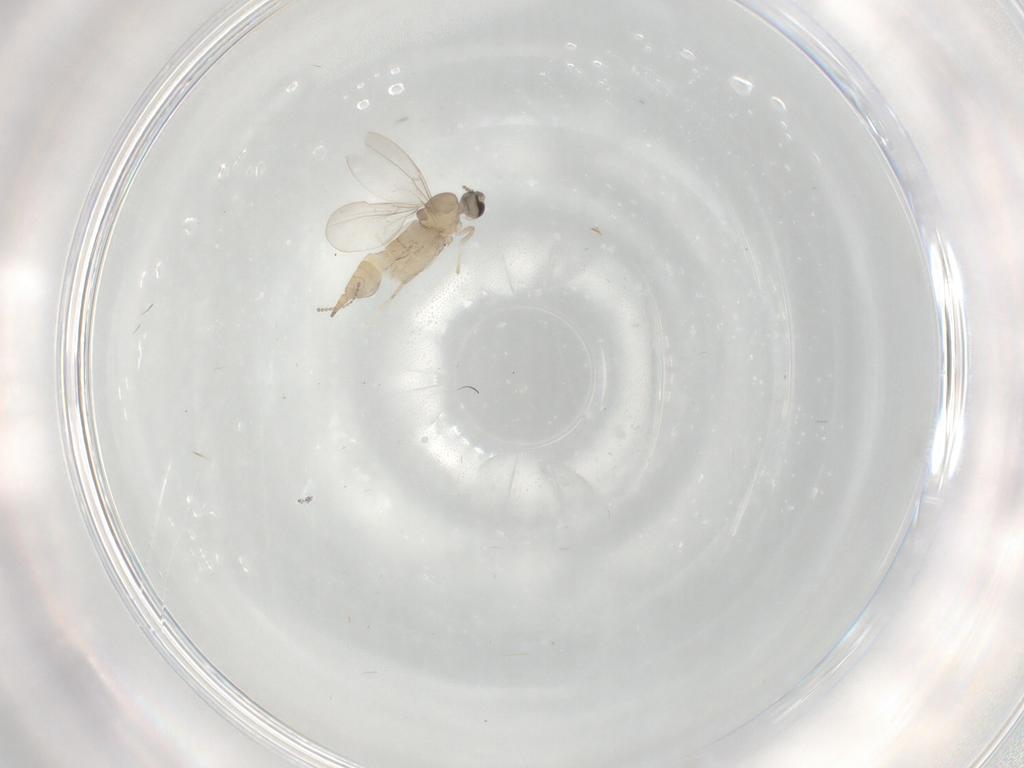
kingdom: Animalia
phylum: Arthropoda
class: Insecta
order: Diptera
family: Cecidomyiidae
